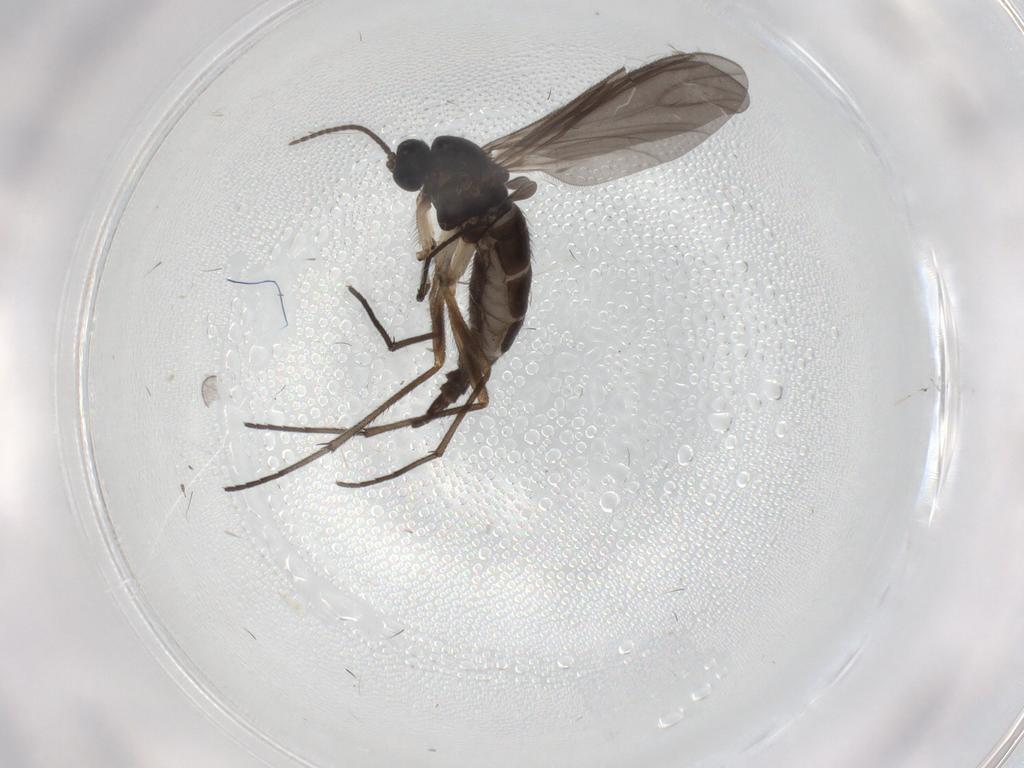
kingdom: Animalia
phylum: Arthropoda
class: Insecta
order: Diptera
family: Sciaridae
